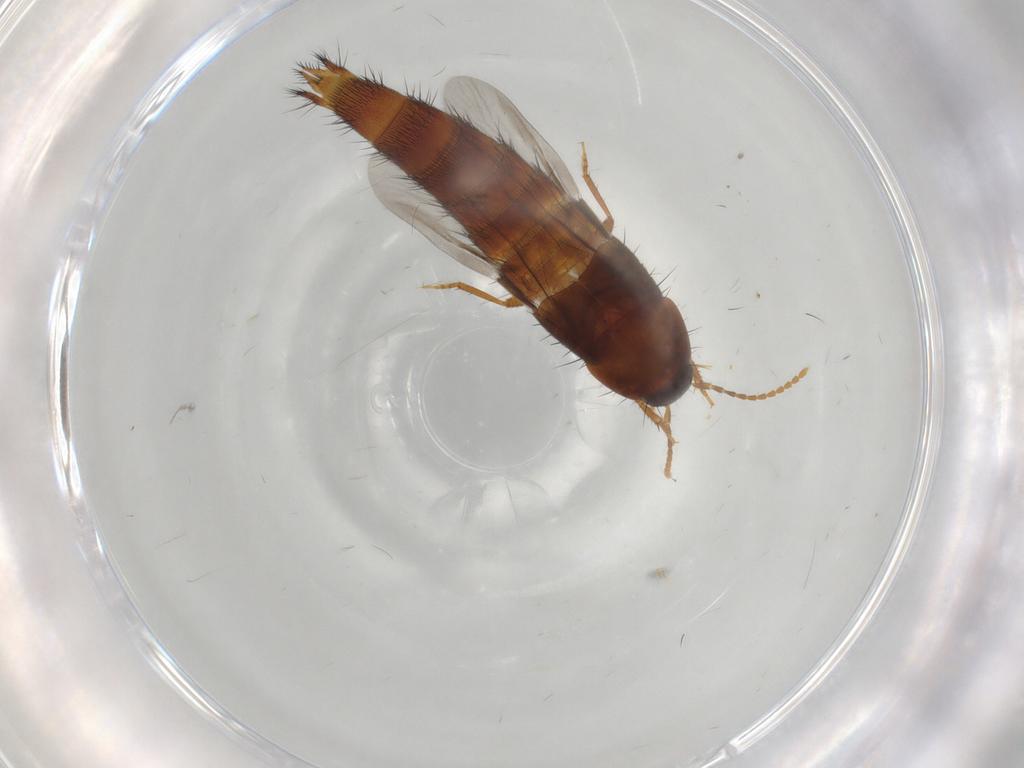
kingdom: Animalia
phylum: Arthropoda
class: Insecta
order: Coleoptera
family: Staphylinidae
